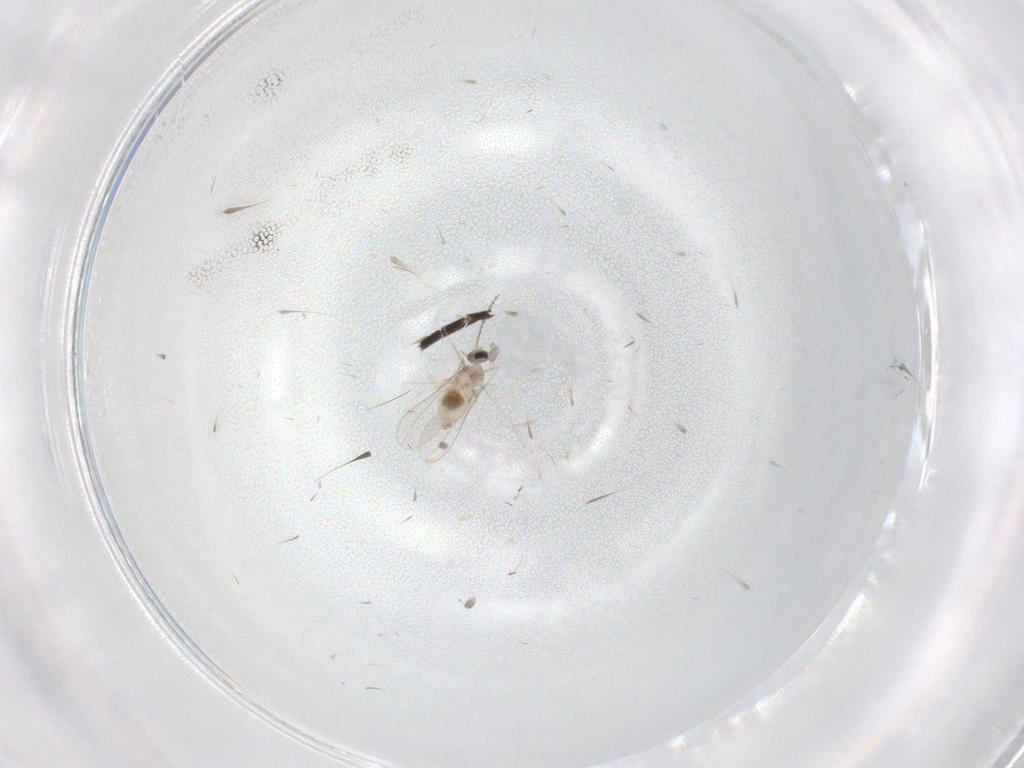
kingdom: Animalia
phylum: Arthropoda
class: Insecta
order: Diptera
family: Cecidomyiidae
